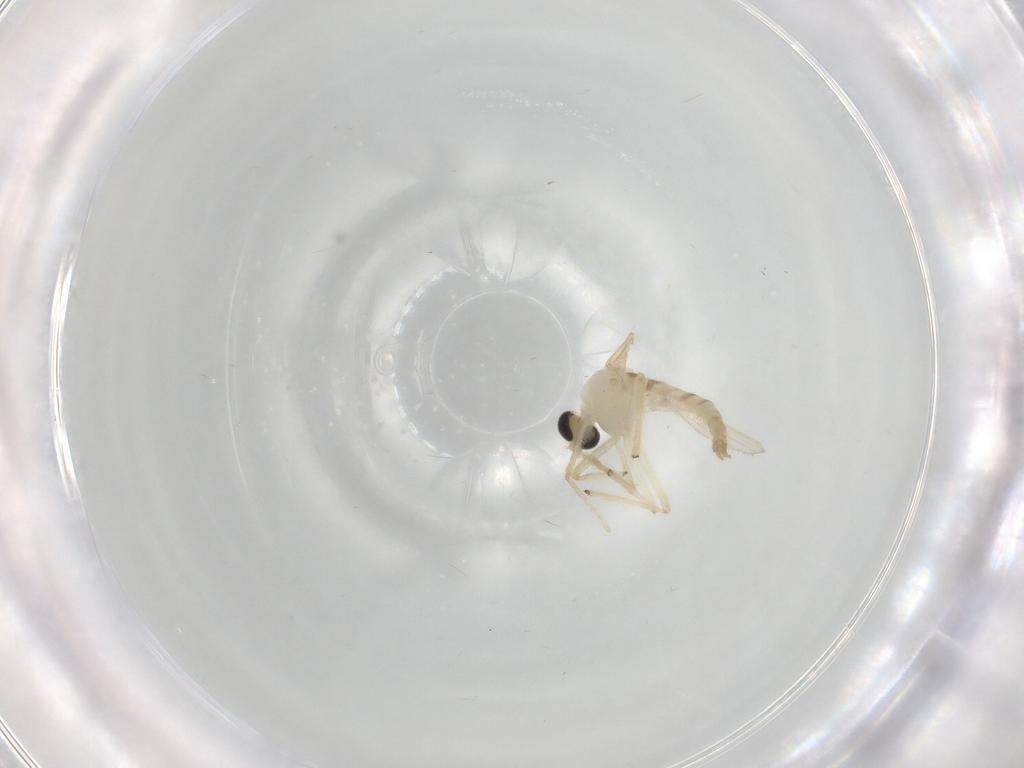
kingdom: Animalia
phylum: Arthropoda
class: Insecta
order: Diptera
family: Chironomidae
